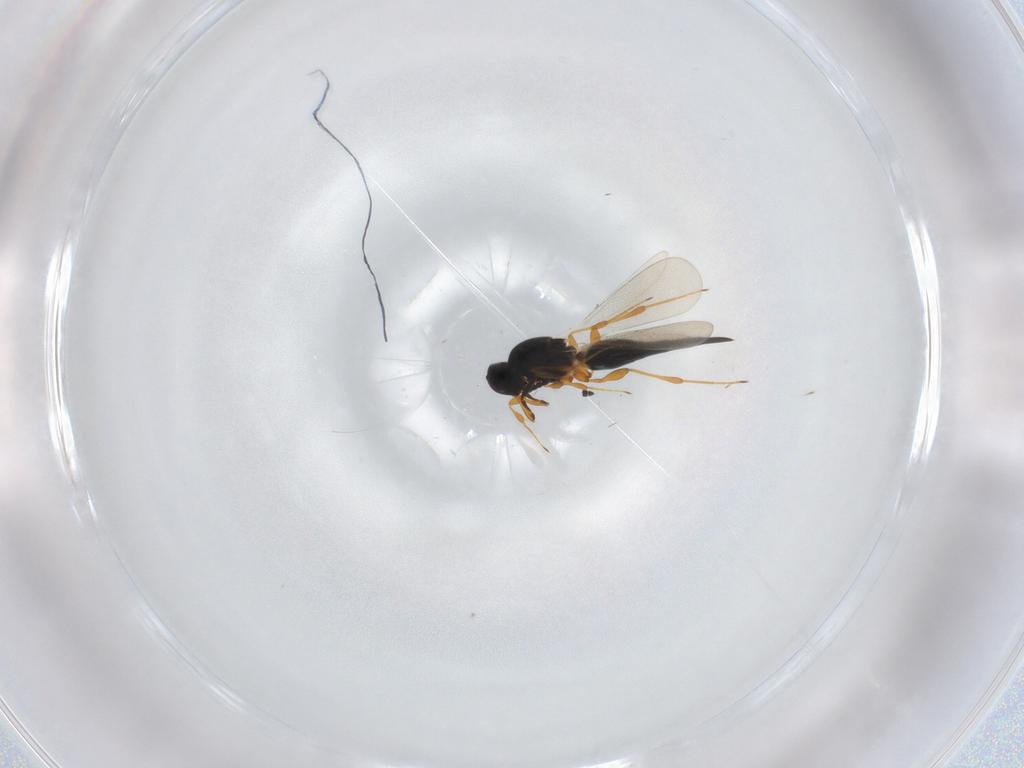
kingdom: Animalia
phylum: Arthropoda
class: Insecta
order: Hymenoptera
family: Platygastridae
